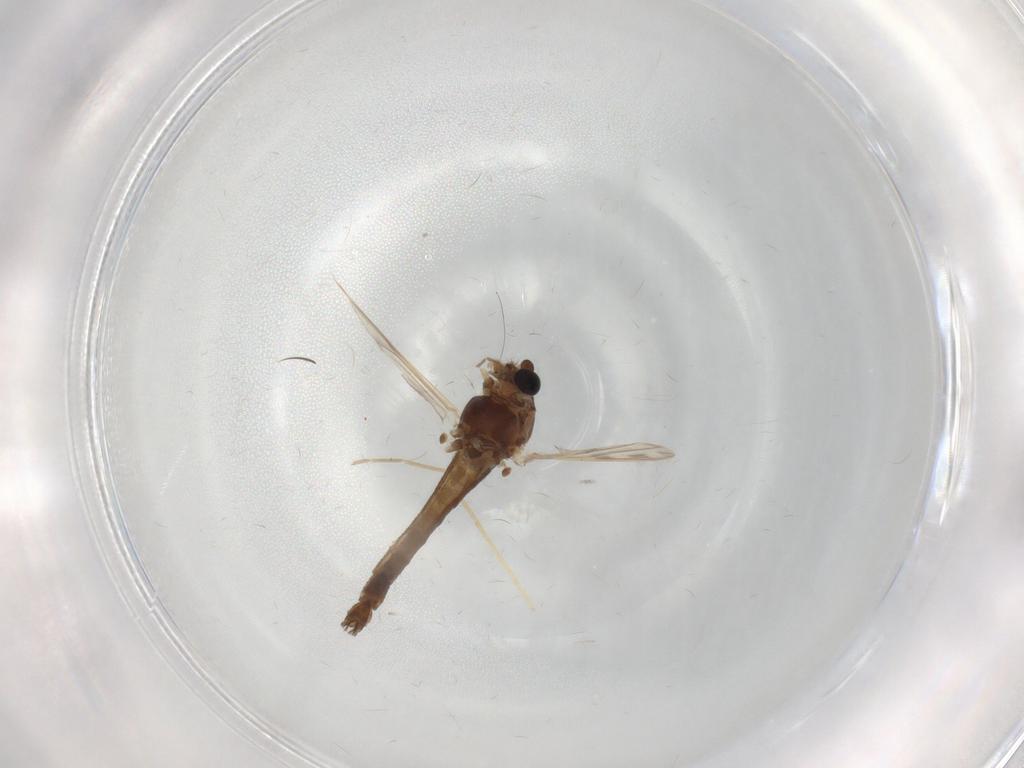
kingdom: Animalia
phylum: Arthropoda
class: Insecta
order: Diptera
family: Chironomidae
